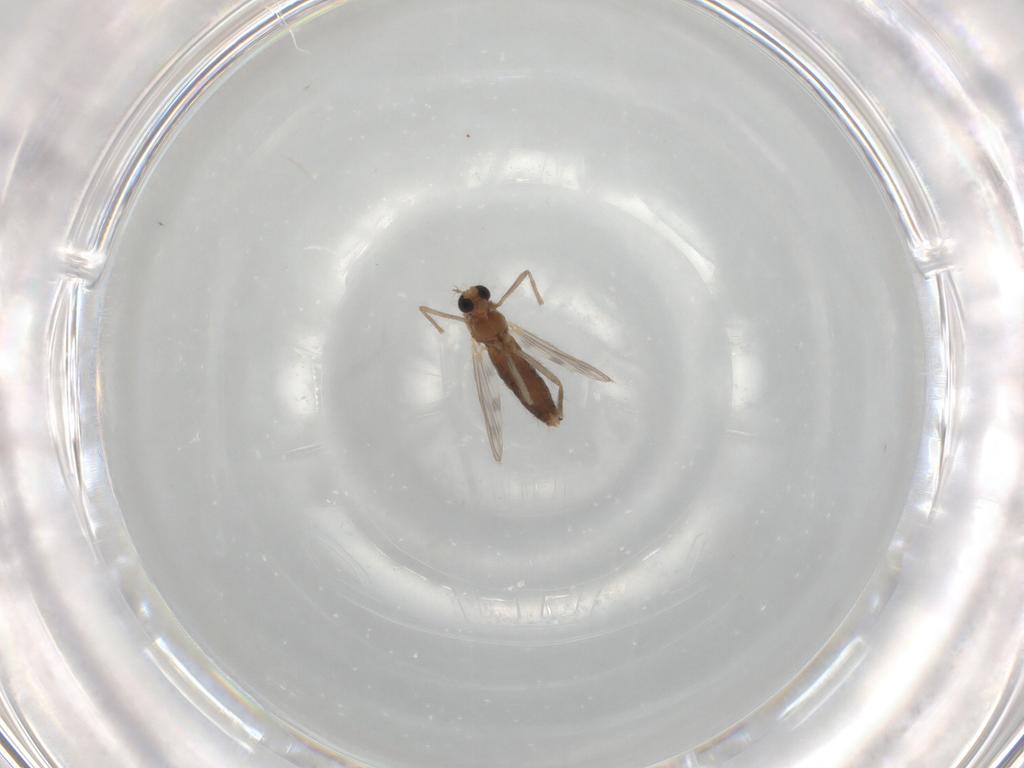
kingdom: Animalia
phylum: Arthropoda
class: Insecta
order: Diptera
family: Chironomidae
